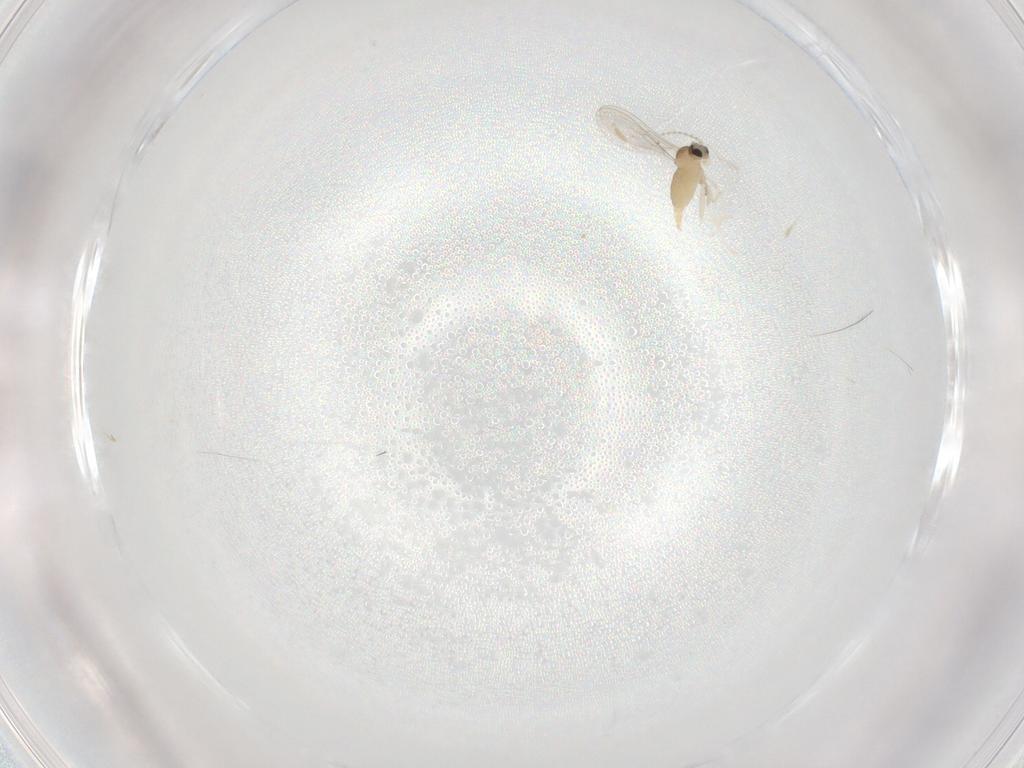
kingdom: Animalia
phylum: Arthropoda
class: Insecta
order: Diptera
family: Cecidomyiidae
